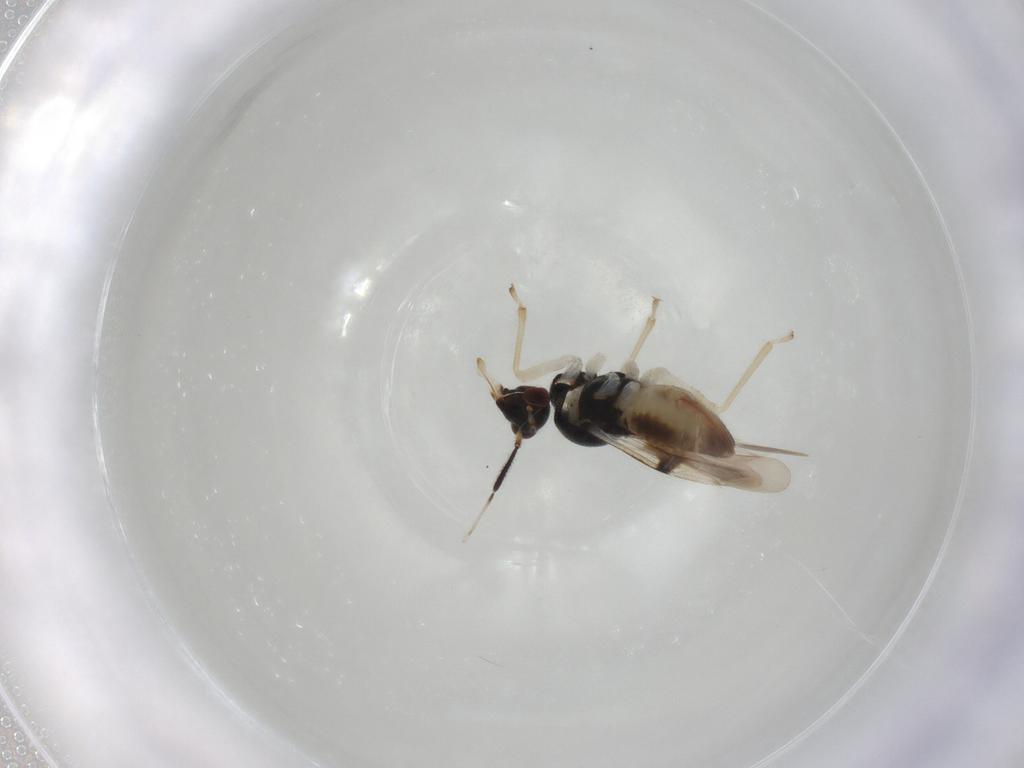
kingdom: Animalia
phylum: Arthropoda
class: Insecta
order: Hemiptera
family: Miridae
